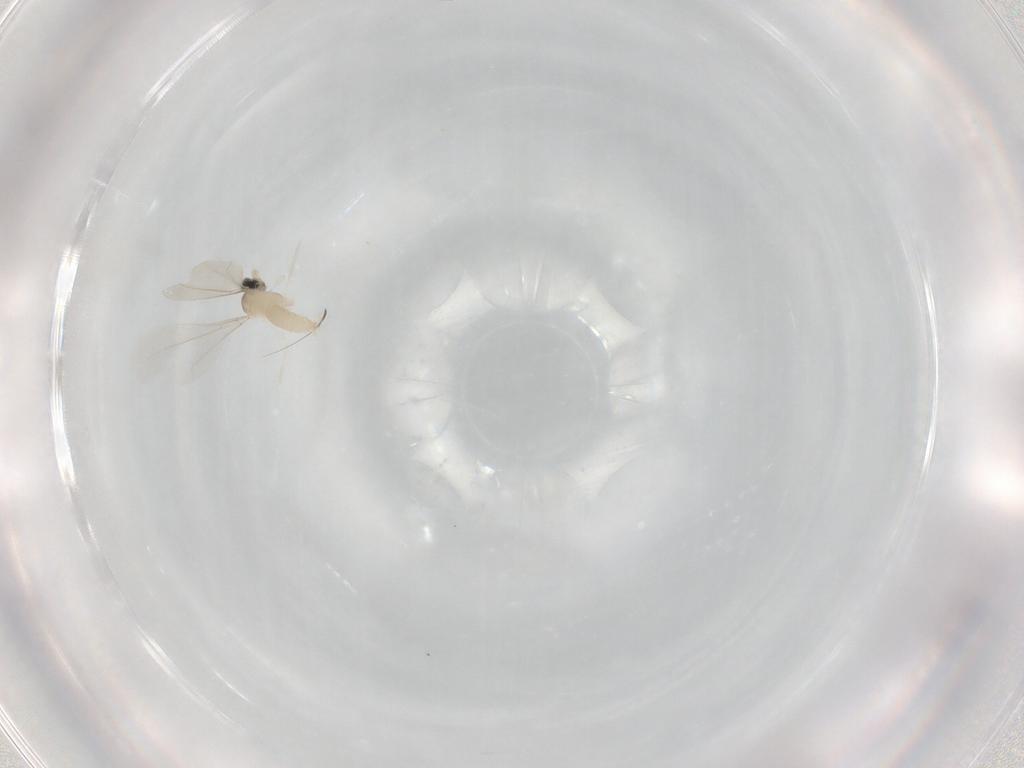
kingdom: Animalia
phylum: Arthropoda
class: Insecta
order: Diptera
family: Cecidomyiidae
